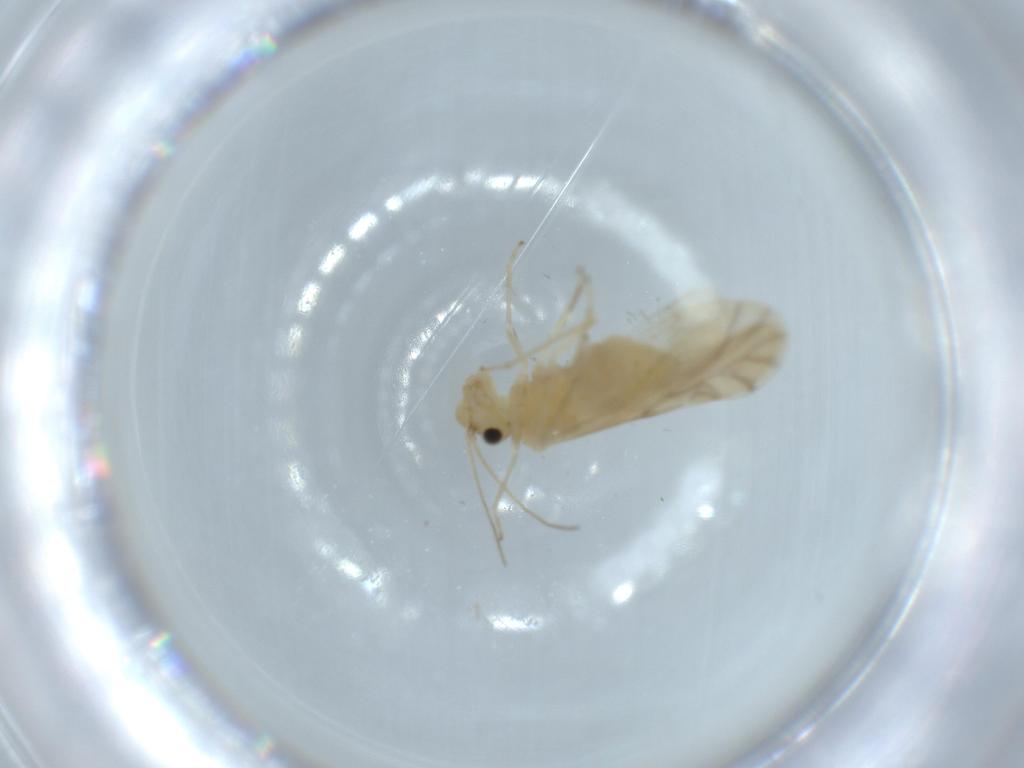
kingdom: Animalia
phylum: Arthropoda
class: Insecta
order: Psocodea
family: Caeciliusidae
